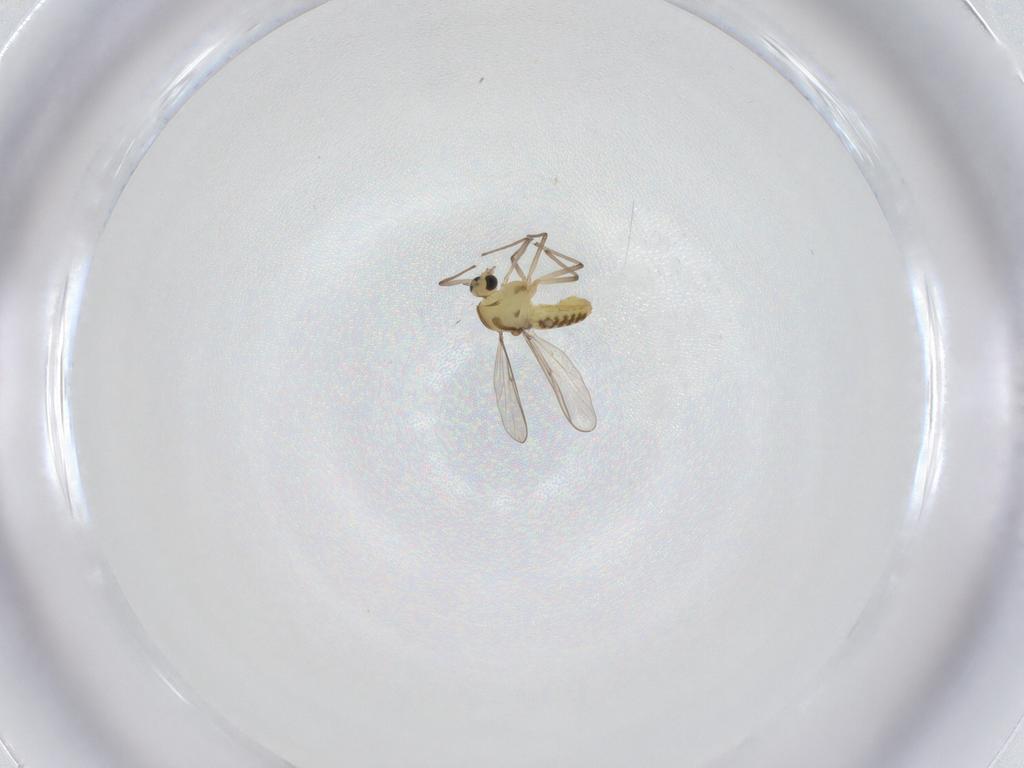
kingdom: Animalia
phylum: Arthropoda
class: Insecta
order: Diptera
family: Chironomidae
